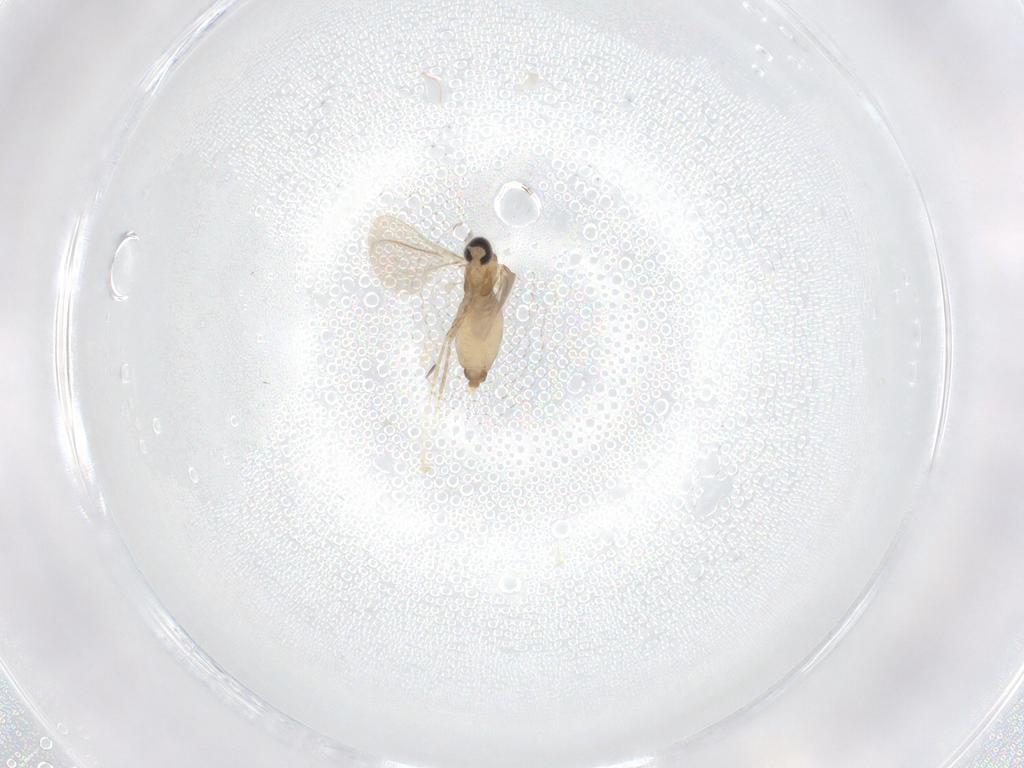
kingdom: Animalia
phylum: Arthropoda
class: Insecta
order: Diptera
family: Cecidomyiidae
